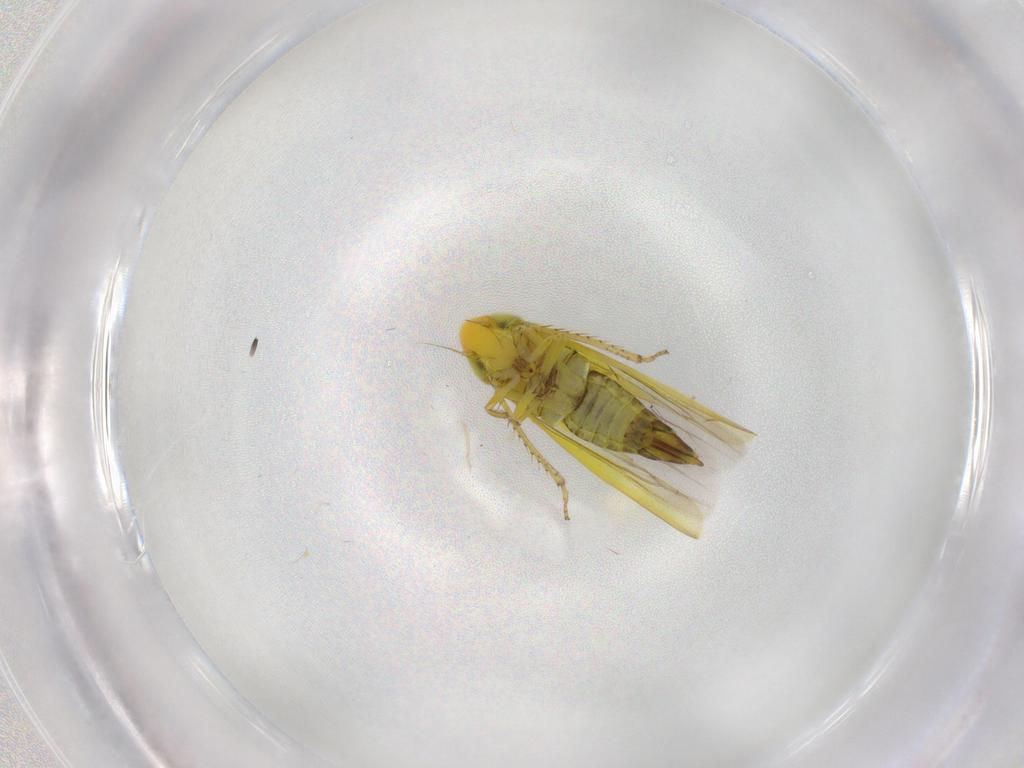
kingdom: Animalia
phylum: Arthropoda
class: Insecta
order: Hemiptera
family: Cicadellidae
